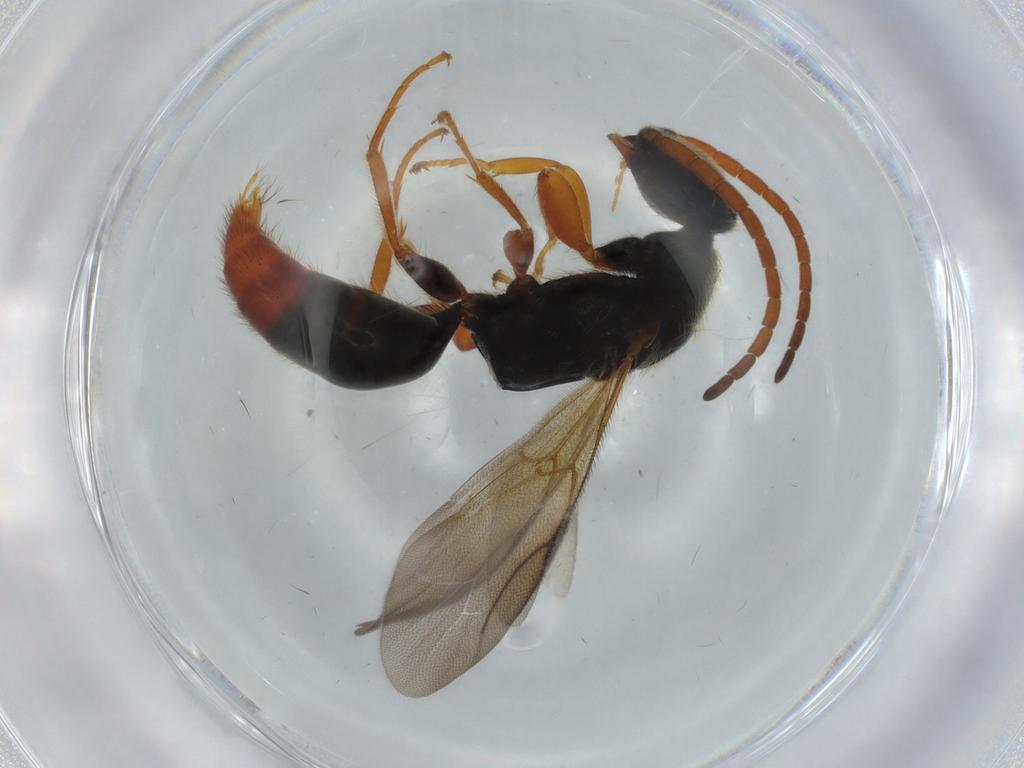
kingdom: Animalia
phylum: Arthropoda
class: Insecta
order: Hymenoptera
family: Bethylidae
